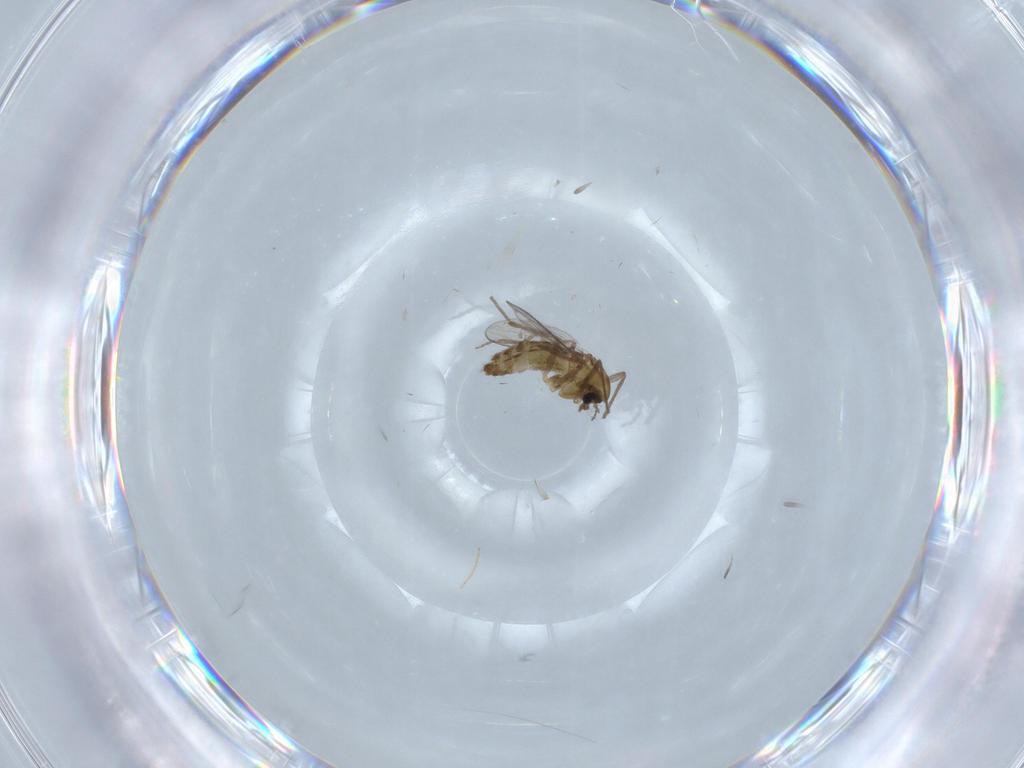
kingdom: Animalia
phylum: Arthropoda
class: Insecta
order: Diptera
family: Chironomidae
